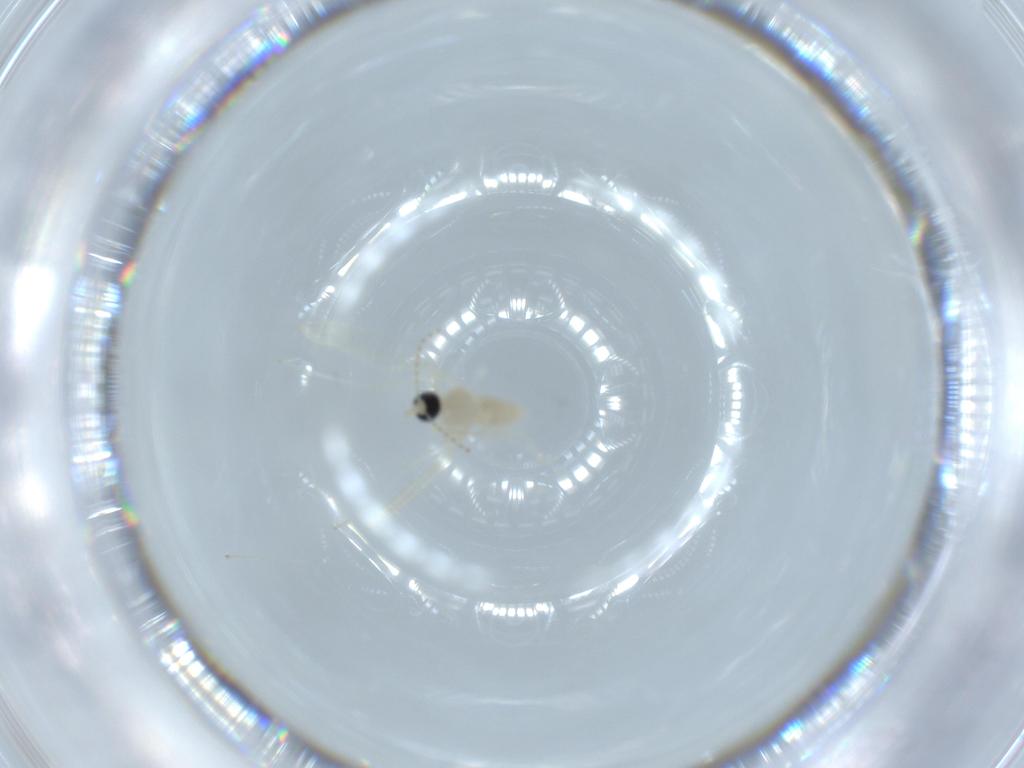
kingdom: Animalia
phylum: Arthropoda
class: Insecta
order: Diptera
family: Cecidomyiidae
